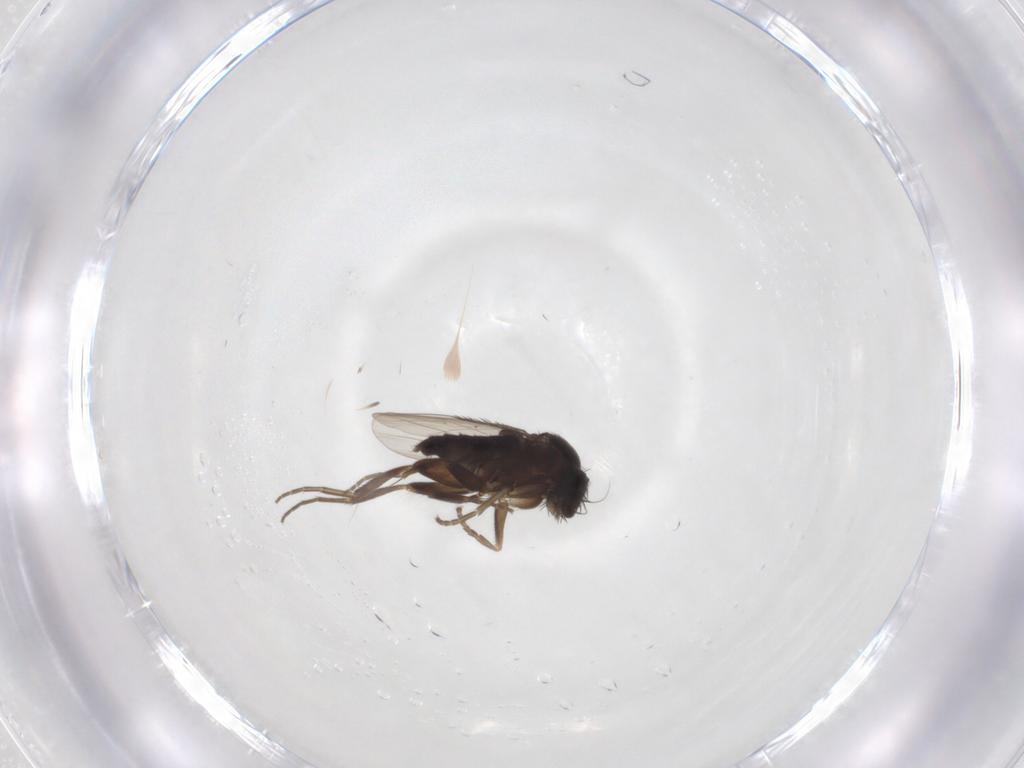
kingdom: Animalia
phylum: Arthropoda
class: Insecta
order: Diptera
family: Phoridae
